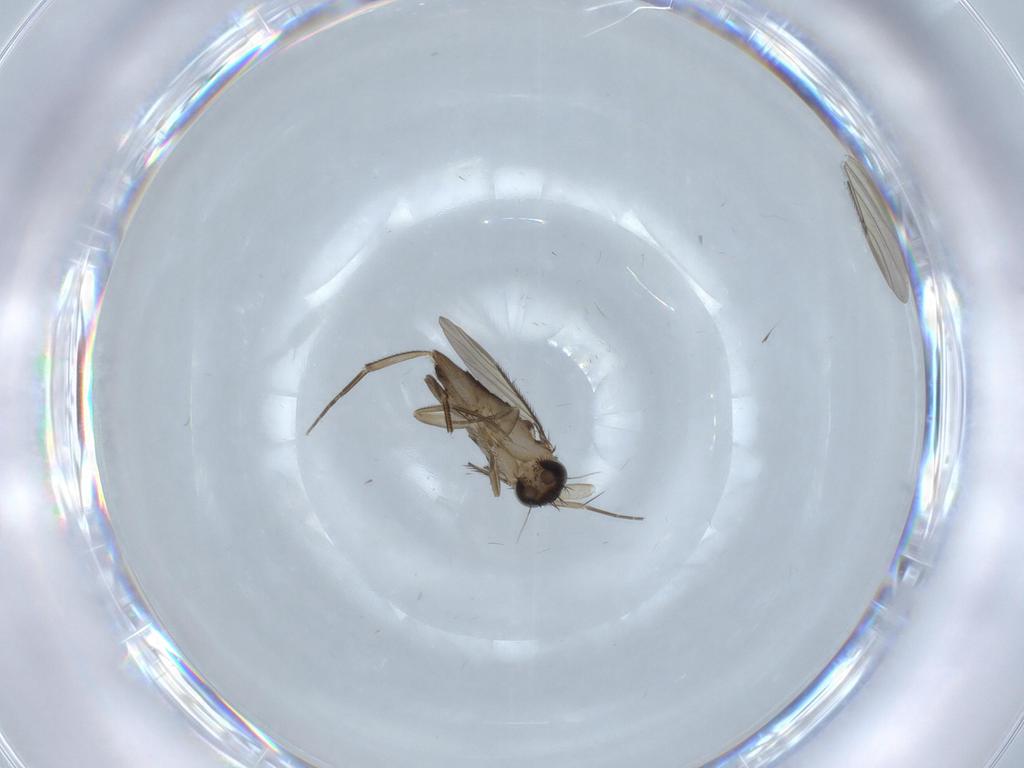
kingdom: Animalia
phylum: Arthropoda
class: Insecta
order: Diptera
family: Phoridae
